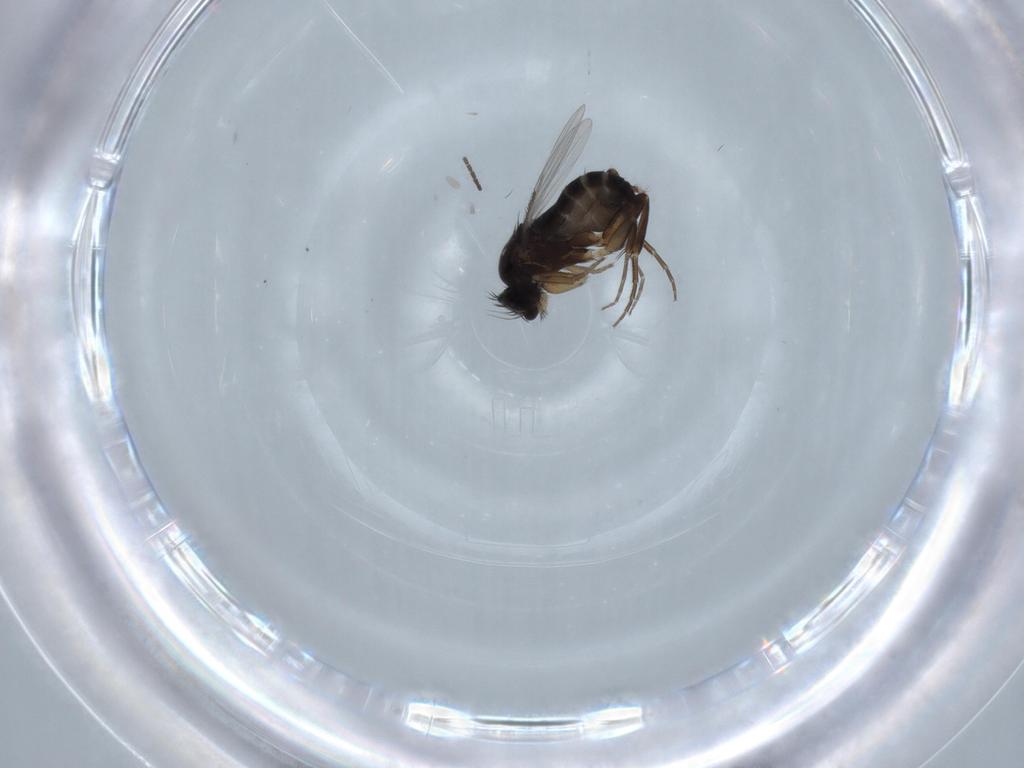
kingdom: Animalia
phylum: Arthropoda
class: Insecta
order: Diptera
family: Phoridae
